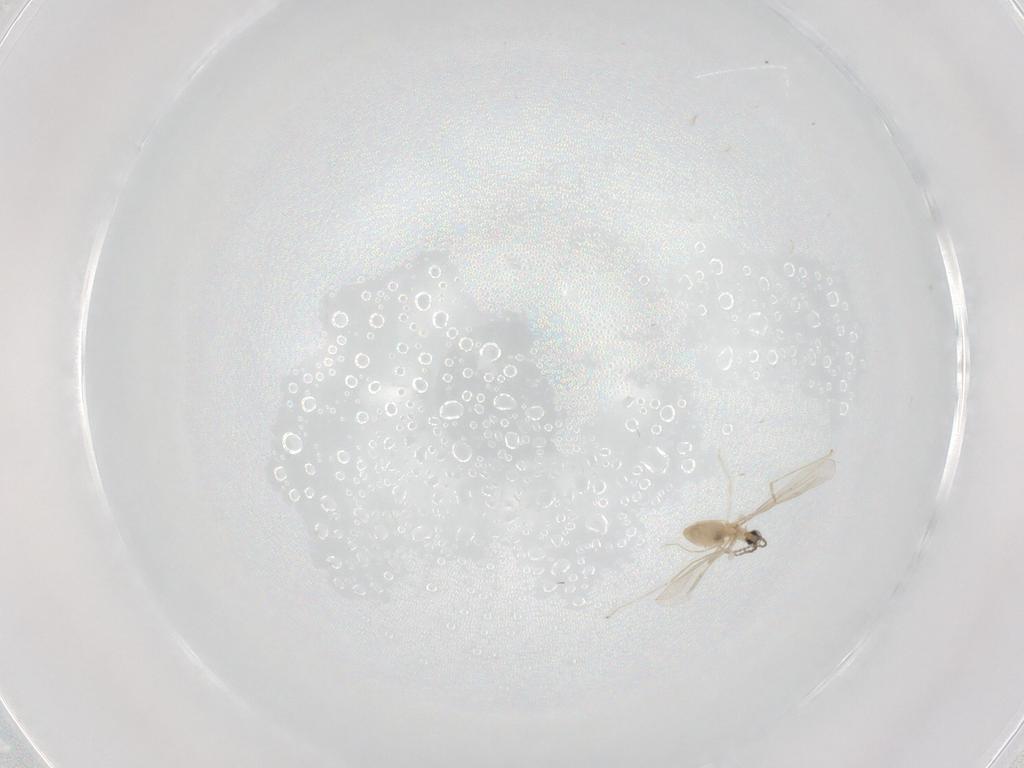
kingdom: Animalia
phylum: Arthropoda
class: Insecta
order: Diptera
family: Cecidomyiidae
